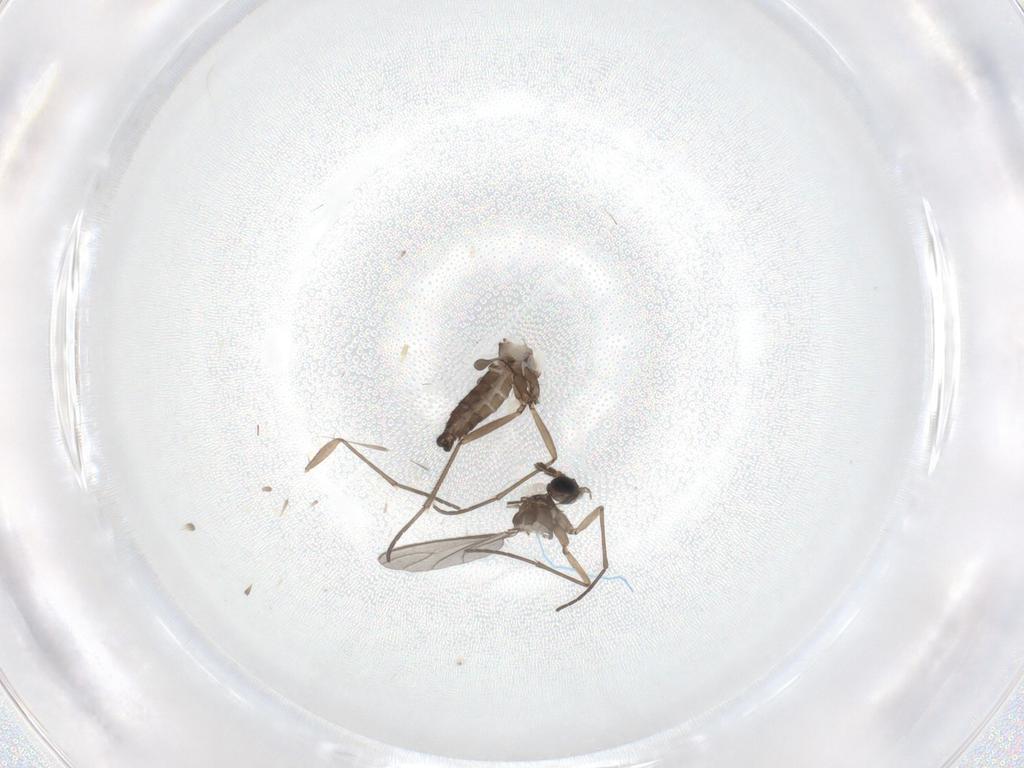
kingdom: Animalia
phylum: Arthropoda
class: Insecta
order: Diptera
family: Sciaridae
